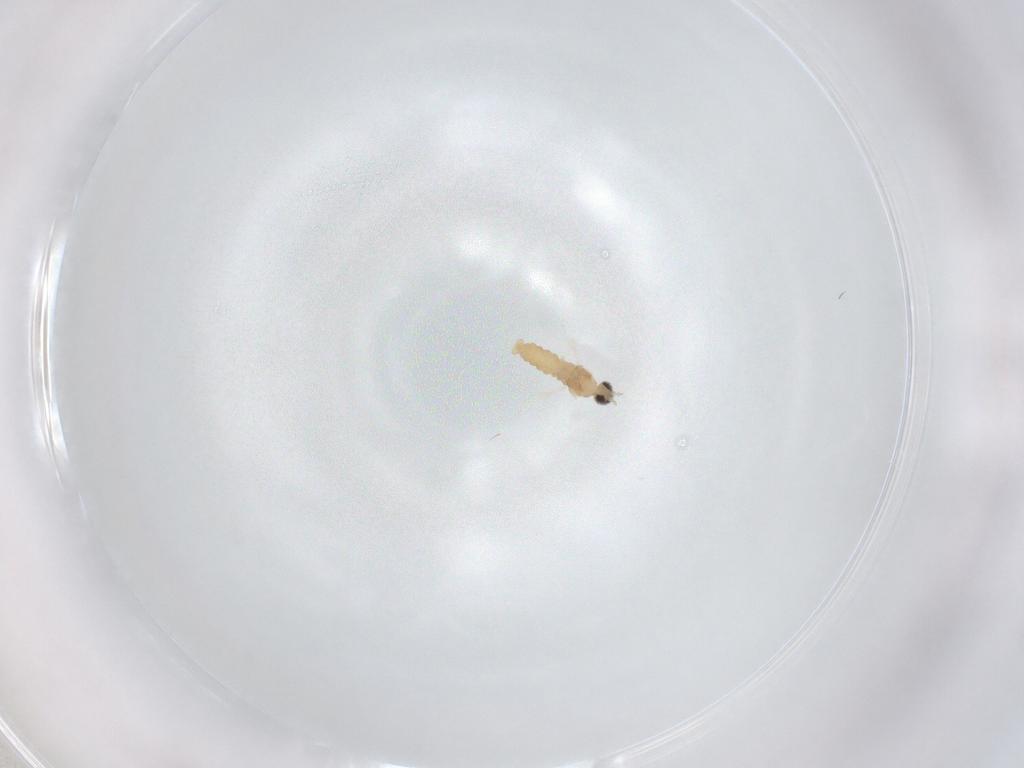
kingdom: Animalia
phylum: Arthropoda
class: Insecta
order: Diptera
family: Cecidomyiidae
